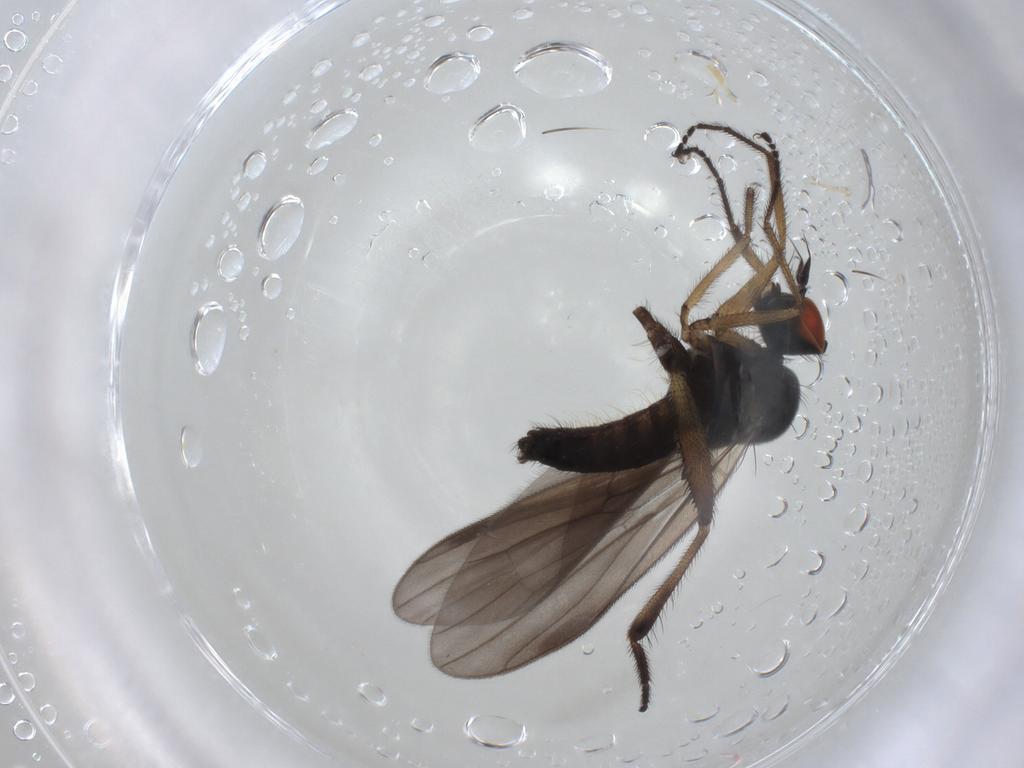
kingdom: Animalia
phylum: Arthropoda
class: Insecta
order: Diptera
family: Hybotidae
